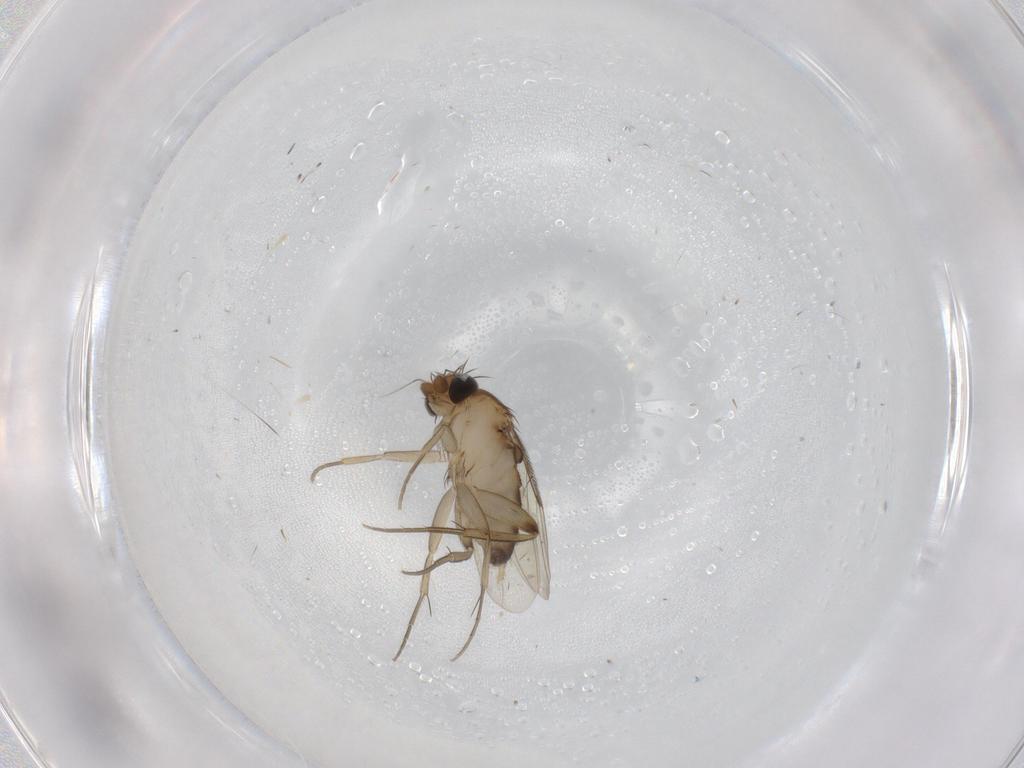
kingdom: Animalia
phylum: Arthropoda
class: Insecta
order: Diptera
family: Phoridae
